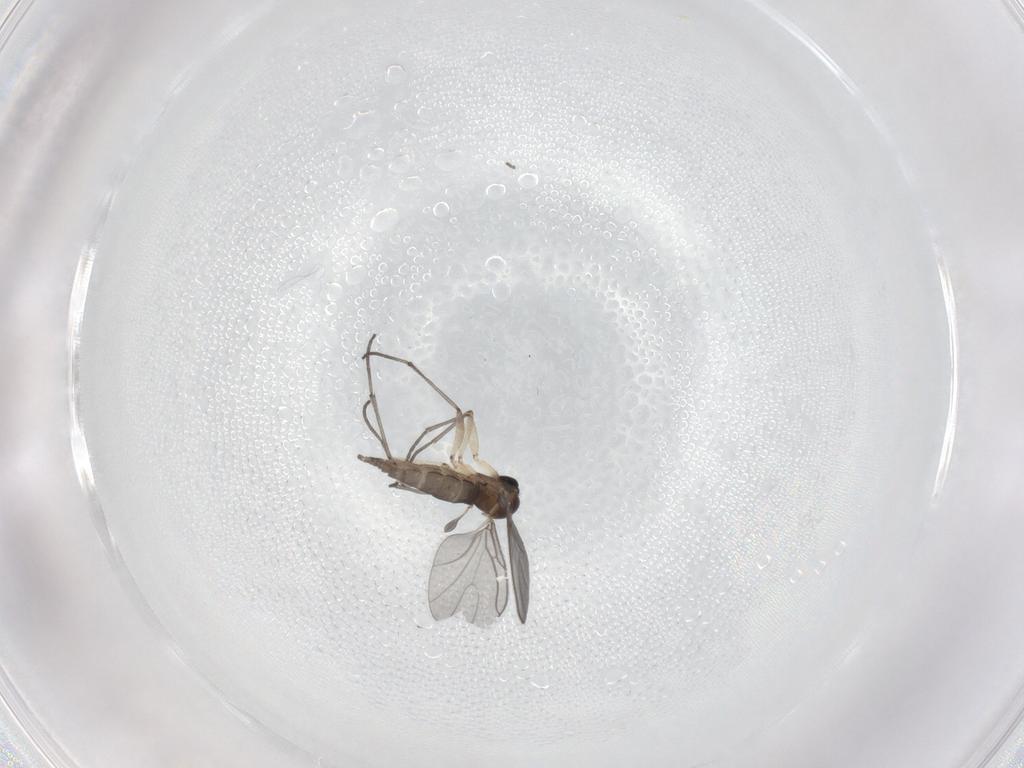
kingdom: Animalia
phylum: Arthropoda
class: Insecta
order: Diptera
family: Sciaridae
